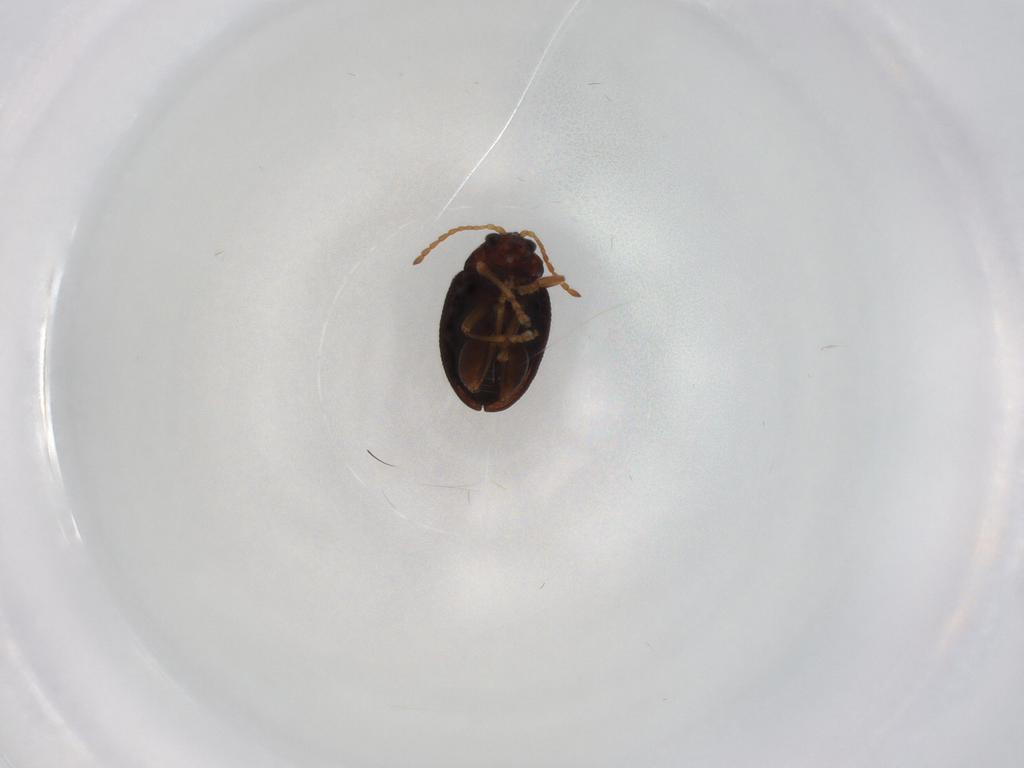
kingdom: Animalia
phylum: Arthropoda
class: Insecta
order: Coleoptera
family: Chrysomelidae
